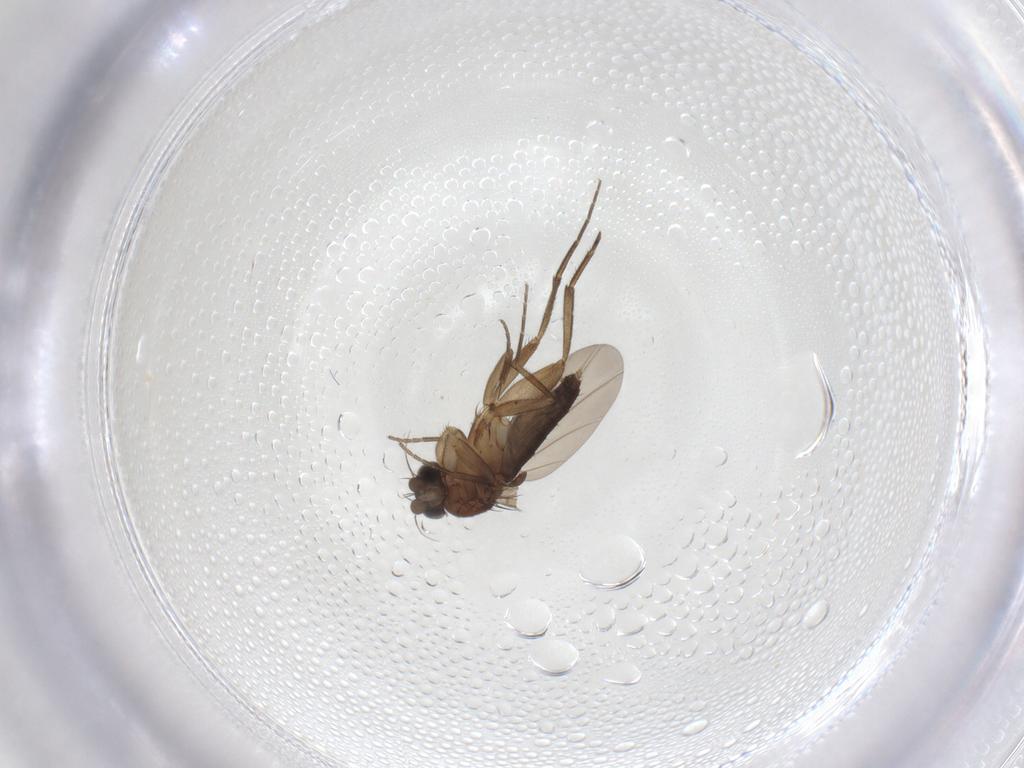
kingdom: Animalia
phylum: Arthropoda
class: Insecta
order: Diptera
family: Phoridae
